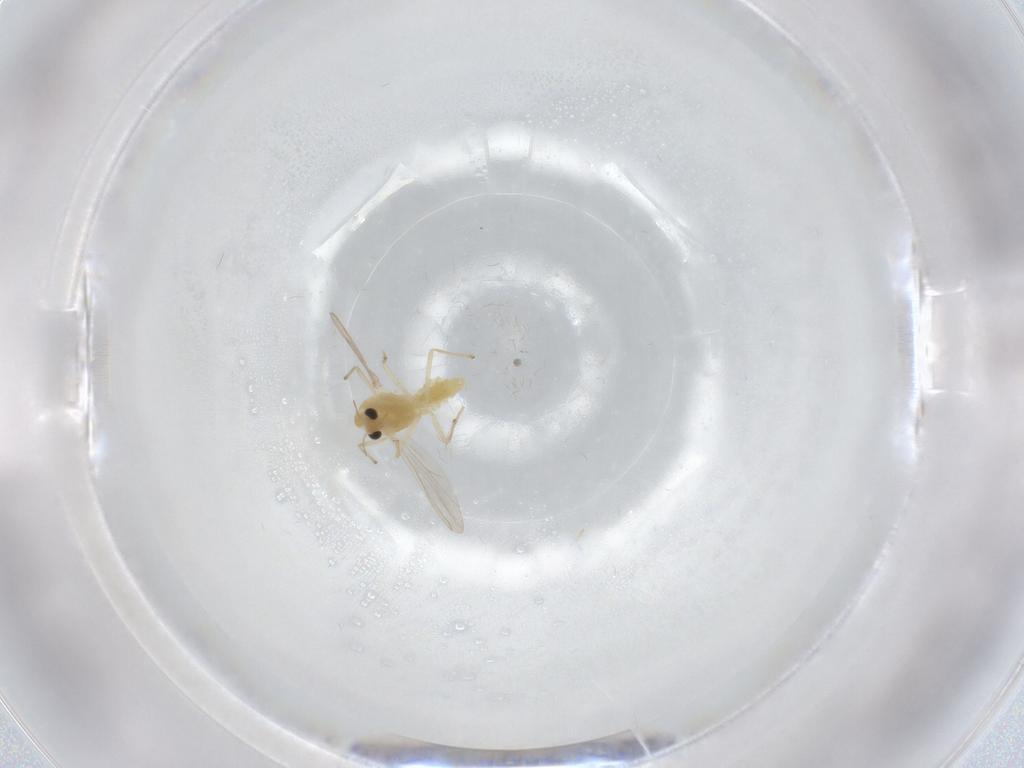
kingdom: Animalia
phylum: Arthropoda
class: Insecta
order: Diptera
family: Chironomidae
